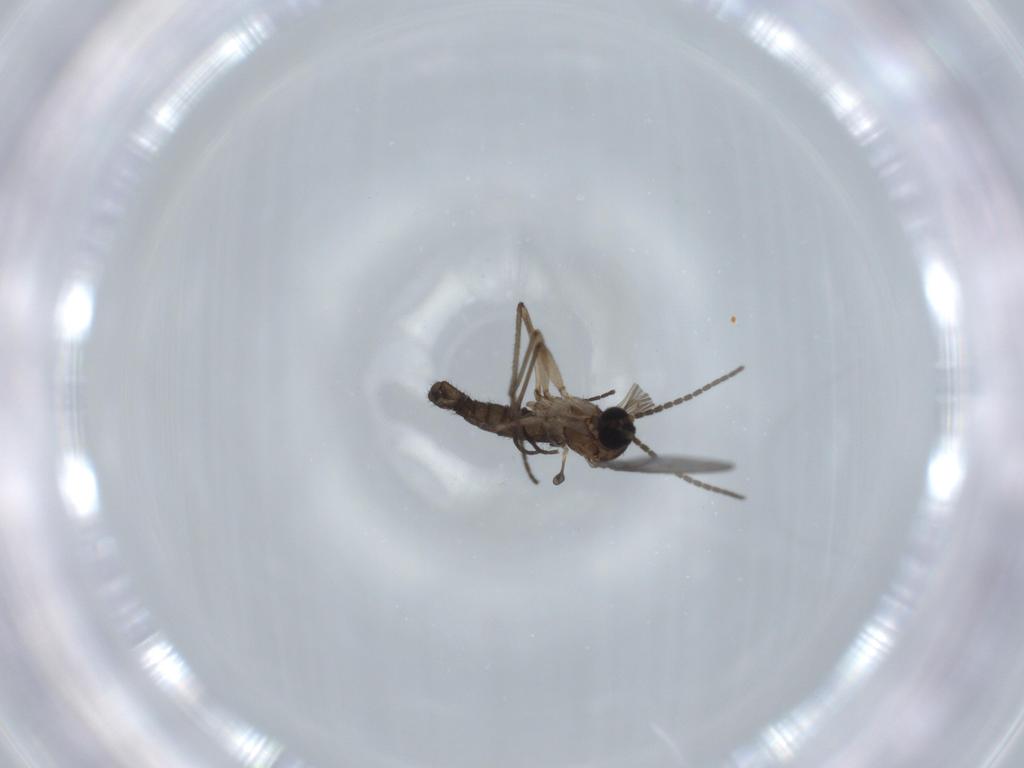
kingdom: Animalia
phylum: Arthropoda
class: Insecta
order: Diptera
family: Sciaridae
